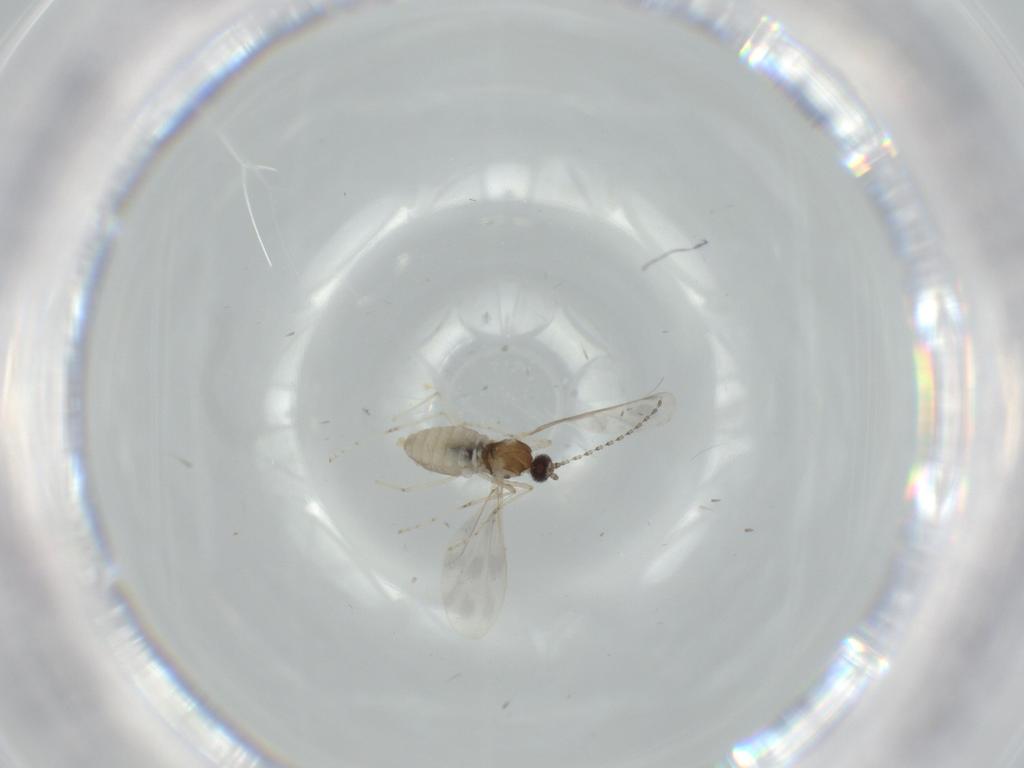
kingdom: Animalia
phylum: Arthropoda
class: Insecta
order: Diptera
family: Cecidomyiidae
